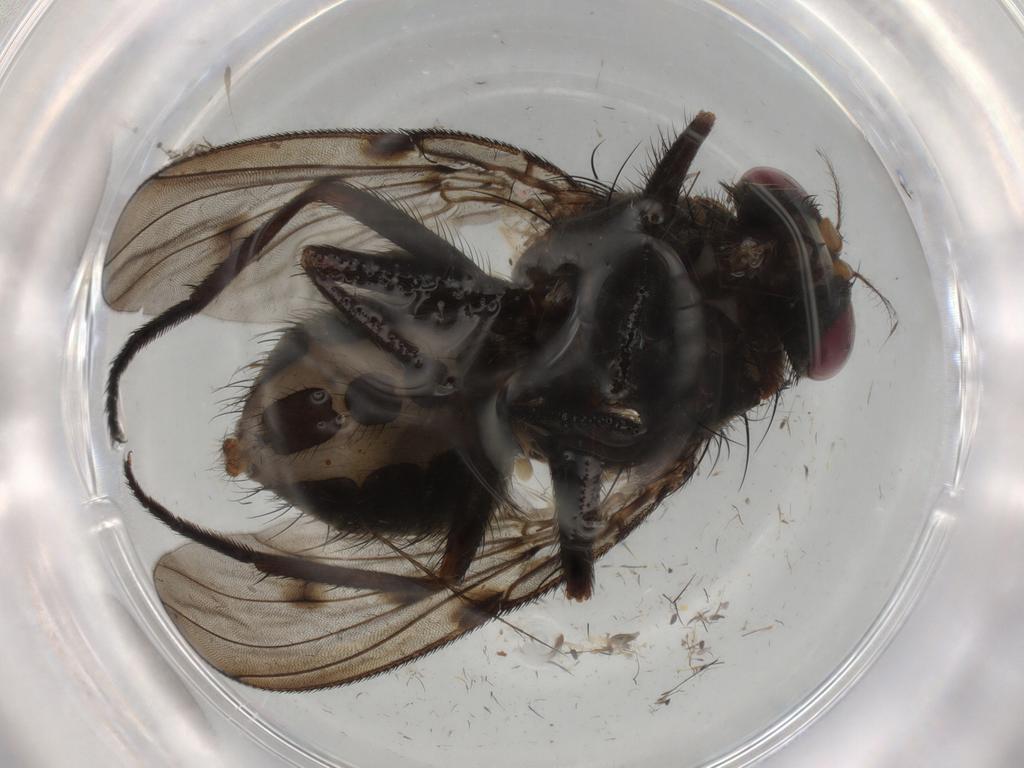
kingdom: Animalia
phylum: Arthropoda
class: Insecta
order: Diptera
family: Muscidae
